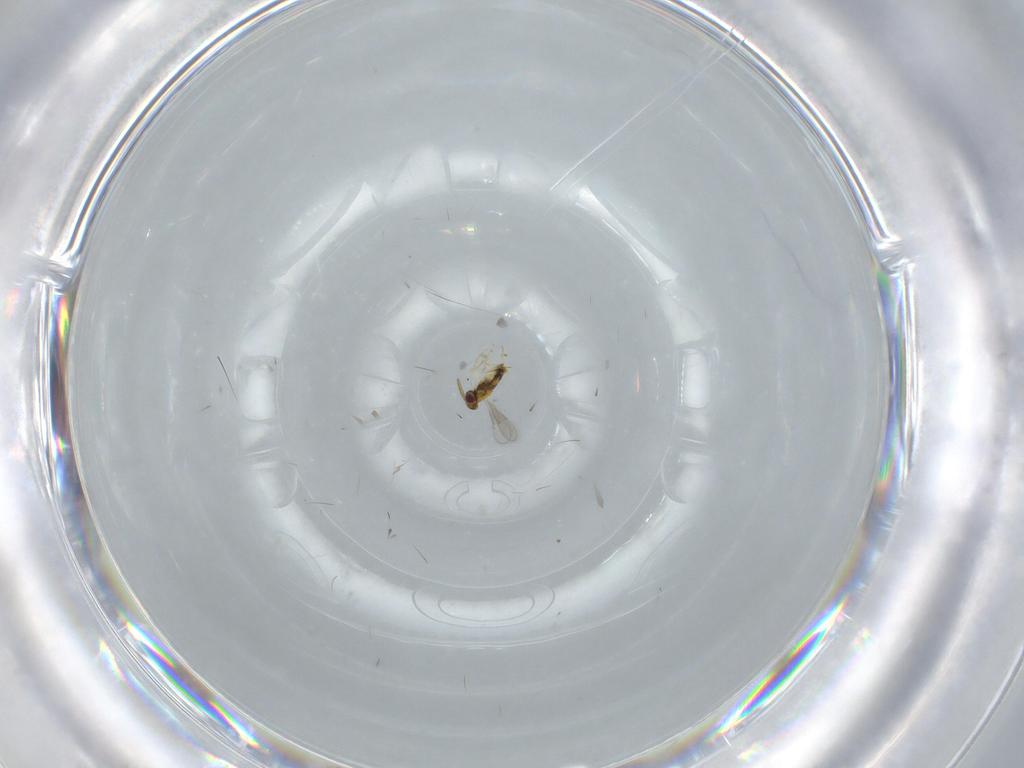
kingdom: Animalia
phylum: Arthropoda
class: Insecta
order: Hymenoptera
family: Aphelinidae
